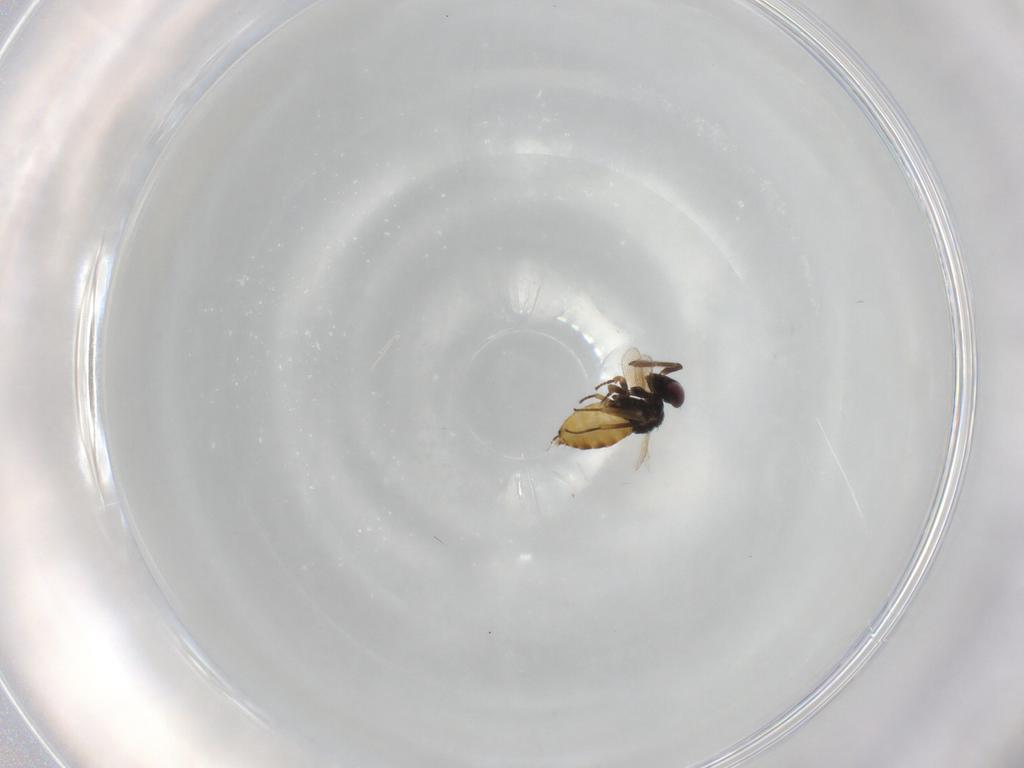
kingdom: Animalia
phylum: Arthropoda
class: Insecta
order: Hymenoptera
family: Aphelinidae
